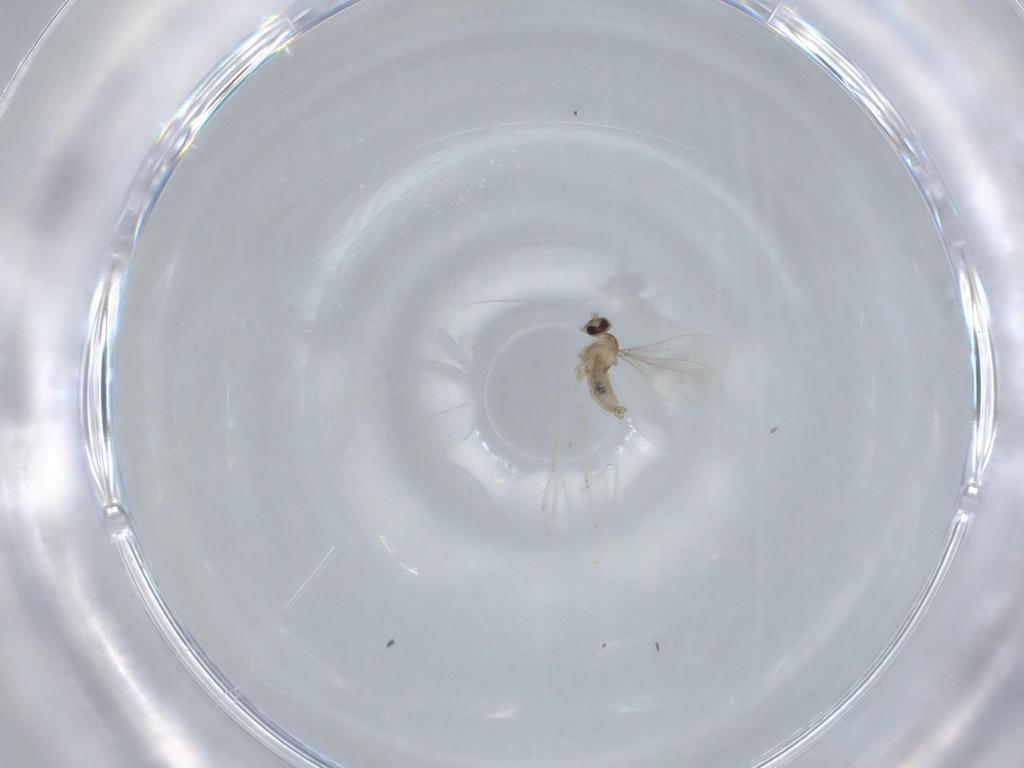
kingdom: Animalia
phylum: Arthropoda
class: Insecta
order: Diptera
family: Cecidomyiidae
